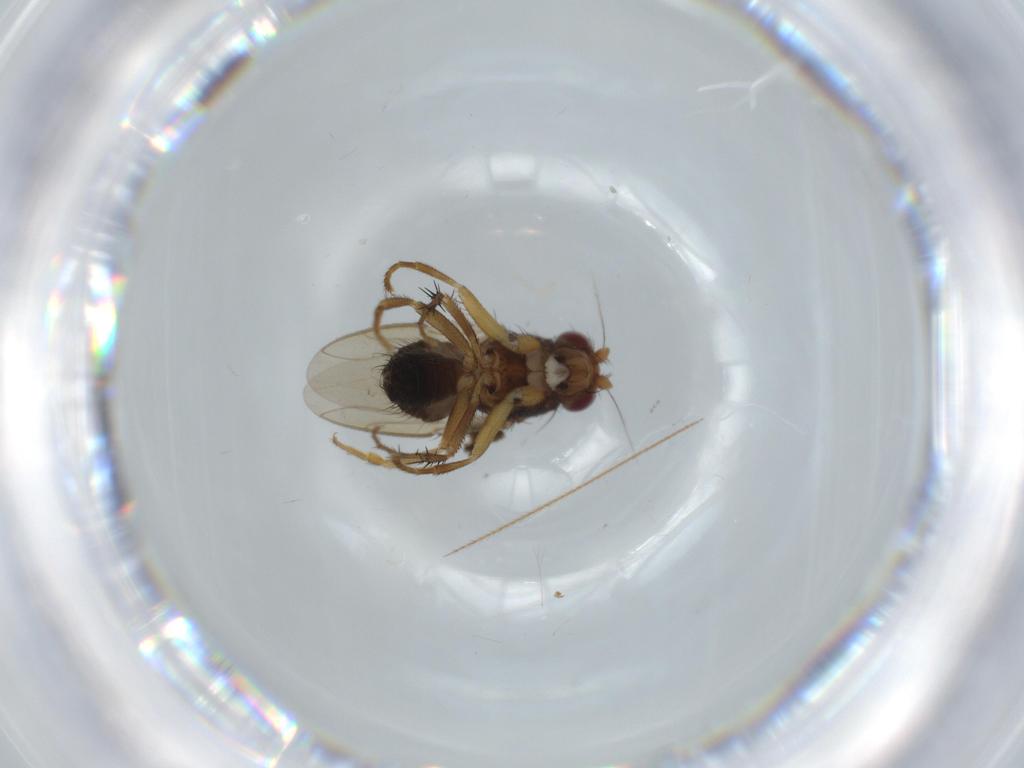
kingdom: Animalia
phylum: Arthropoda
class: Insecta
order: Diptera
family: Sphaeroceridae
